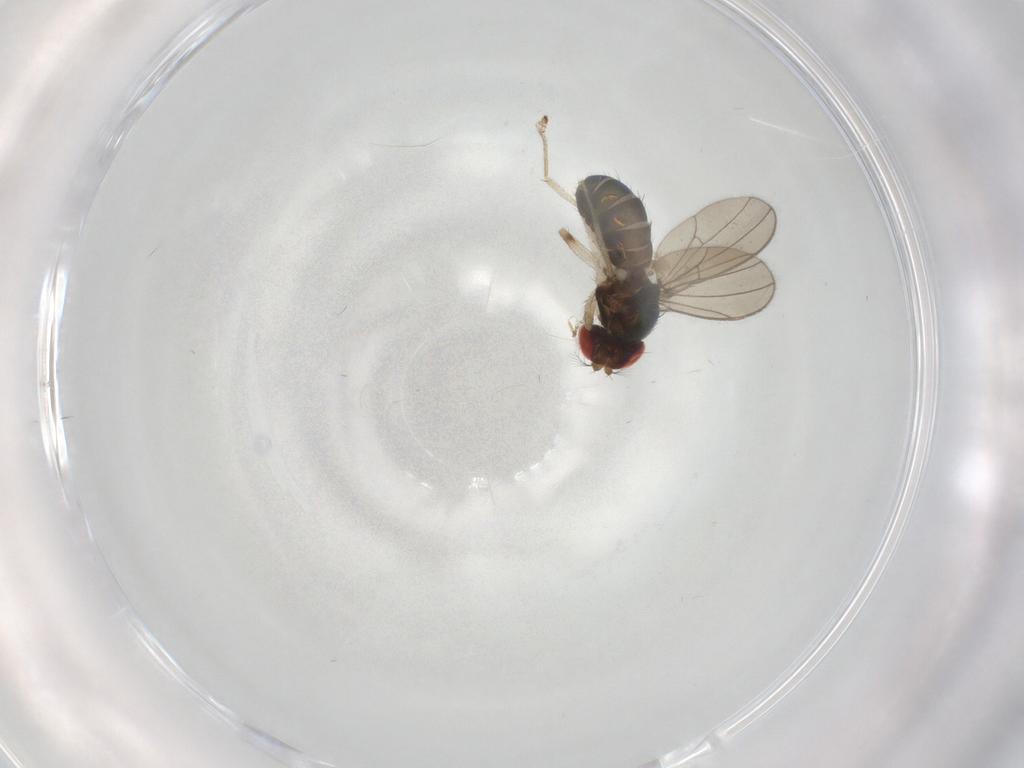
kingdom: Animalia
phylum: Arthropoda
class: Insecta
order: Diptera
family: Drosophilidae
